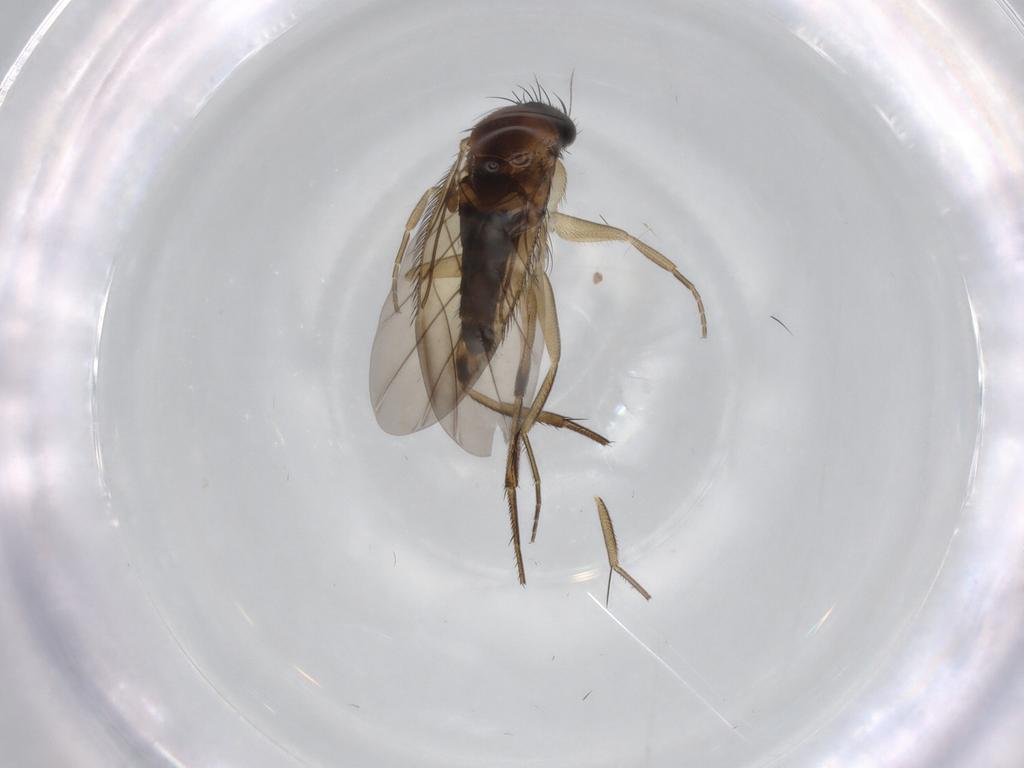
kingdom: Animalia
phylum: Arthropoda
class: Insecta
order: Diptera
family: Phoridae
